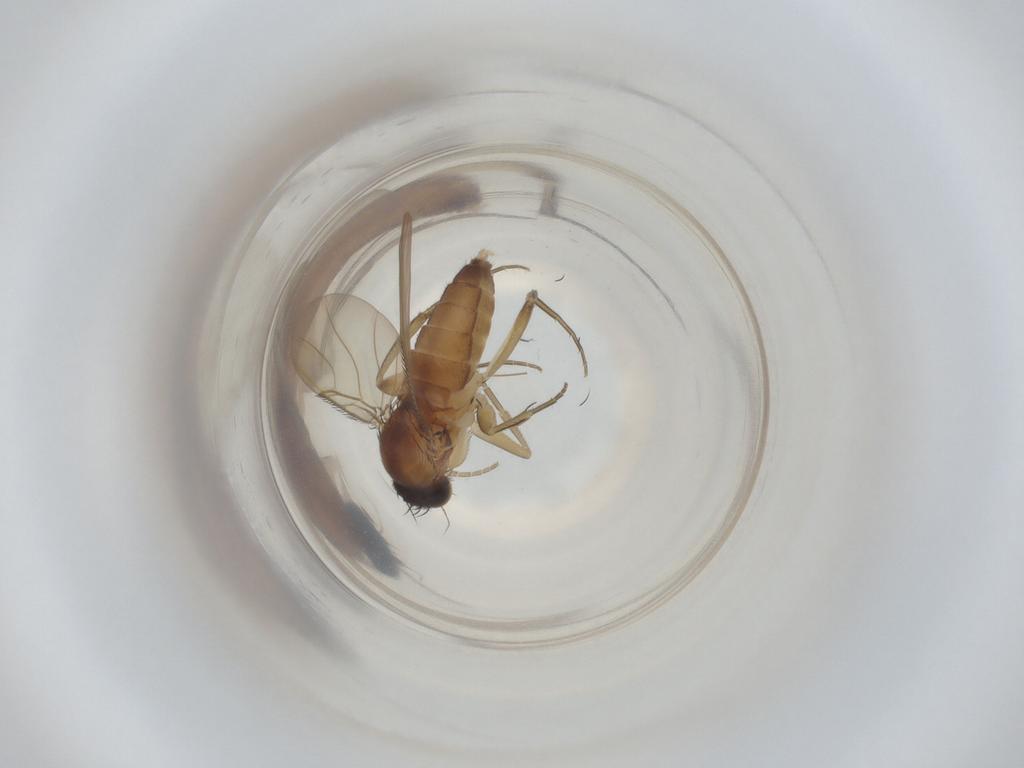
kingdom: Animalia
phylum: Arthropoda
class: Insecta
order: Diptera
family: Phoridae
